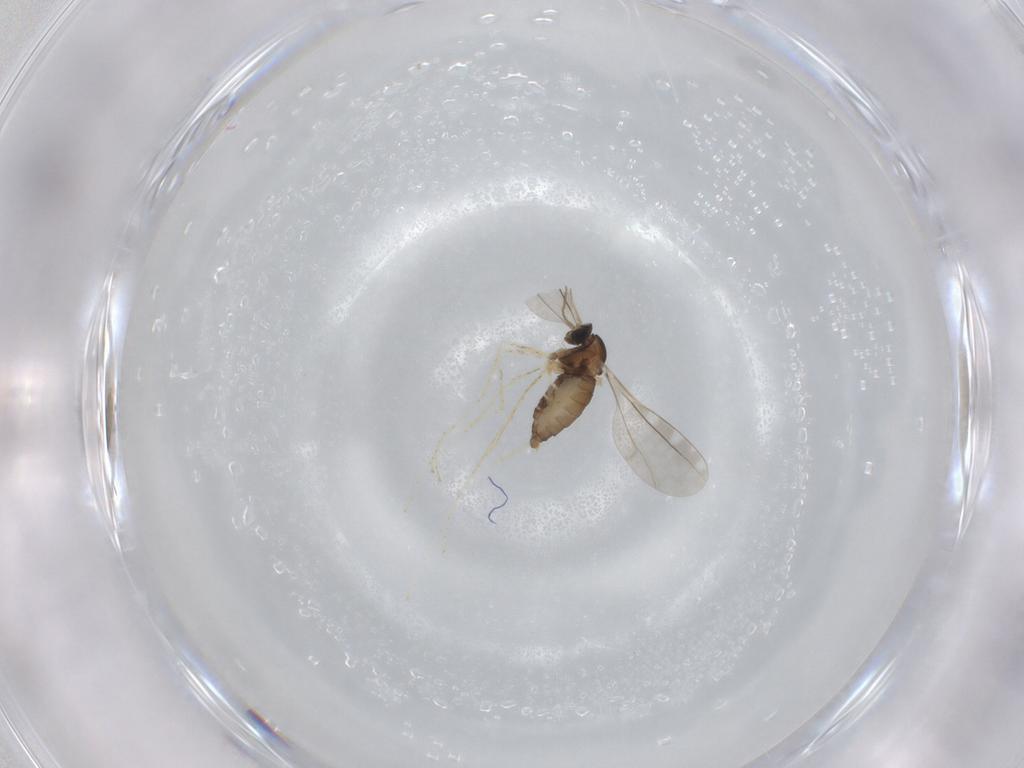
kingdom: Animalia
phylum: Arthropoda
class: Insecta
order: Diptera
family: Cecidomyiidae
